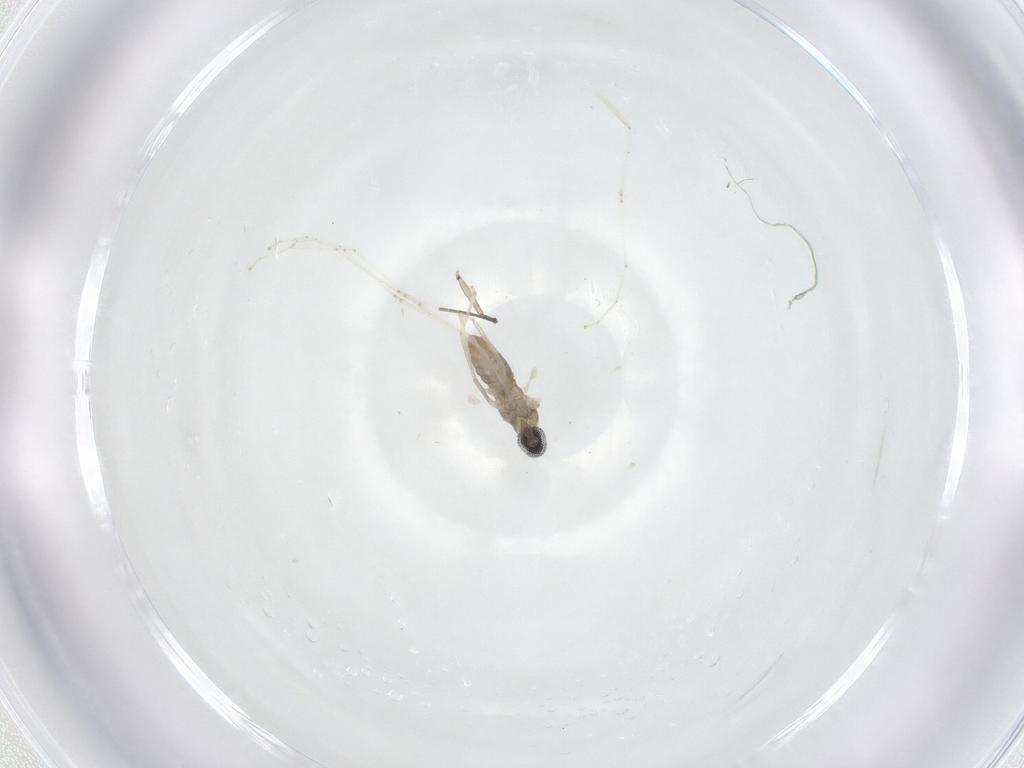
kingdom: Animalia
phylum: Arthropoda
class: Insecta
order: Diptera
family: Cecidomyiidae
